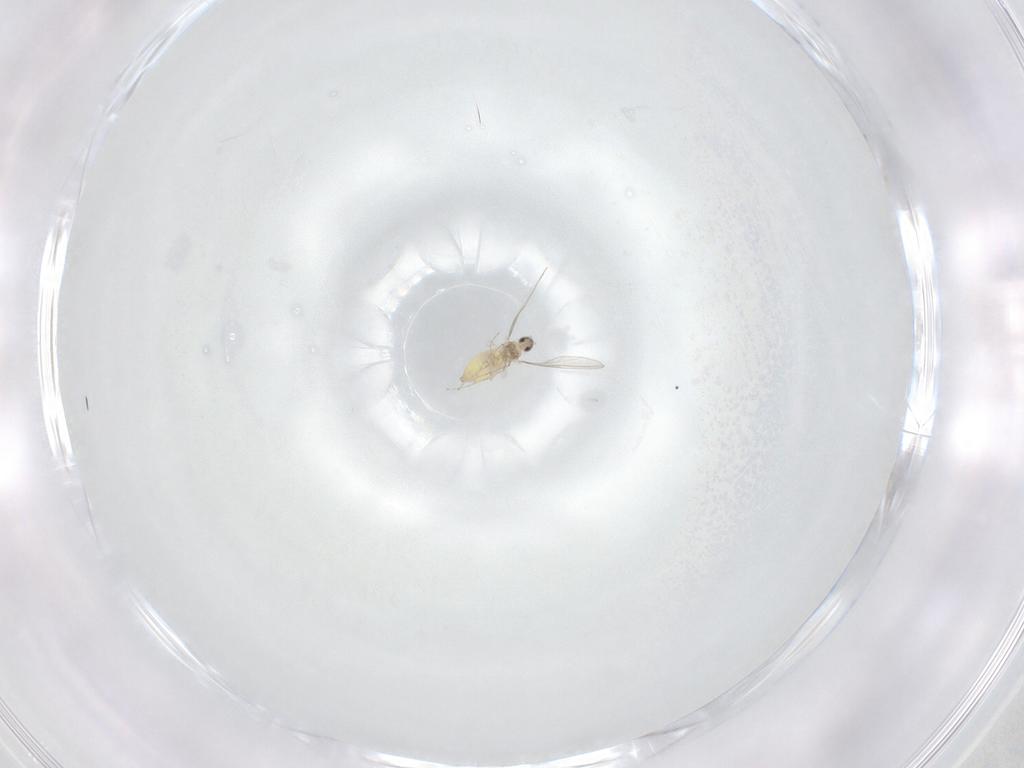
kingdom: Animalia
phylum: Arthropoda
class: Insecta
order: Diptera
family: Cecidomyiidae
